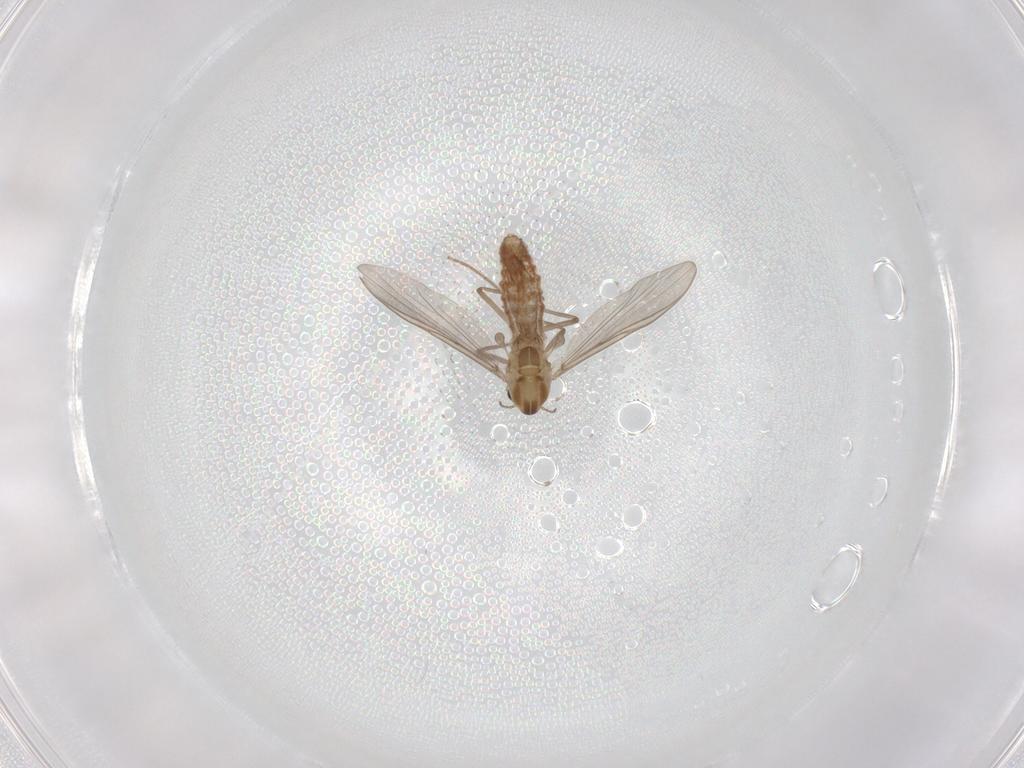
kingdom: Animalia
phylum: Arthropoda
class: Insecta
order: Diptera
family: Chironomidae
